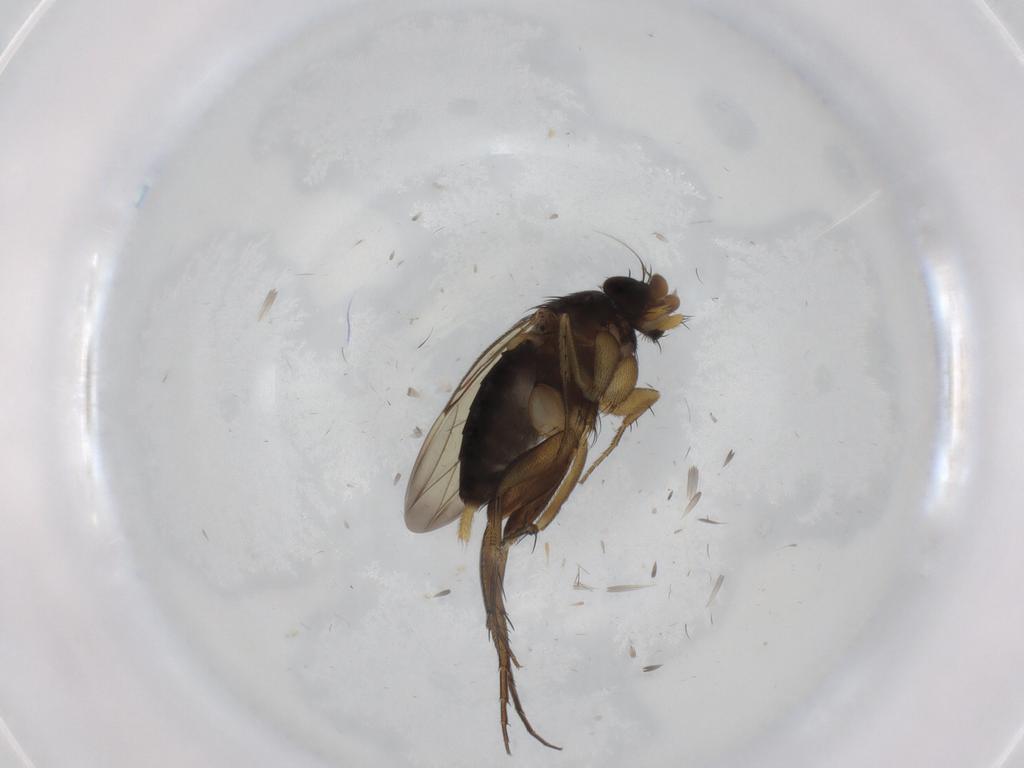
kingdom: Animalia
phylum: Arthropoda
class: Insecta
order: Diptera
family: Phoridae
